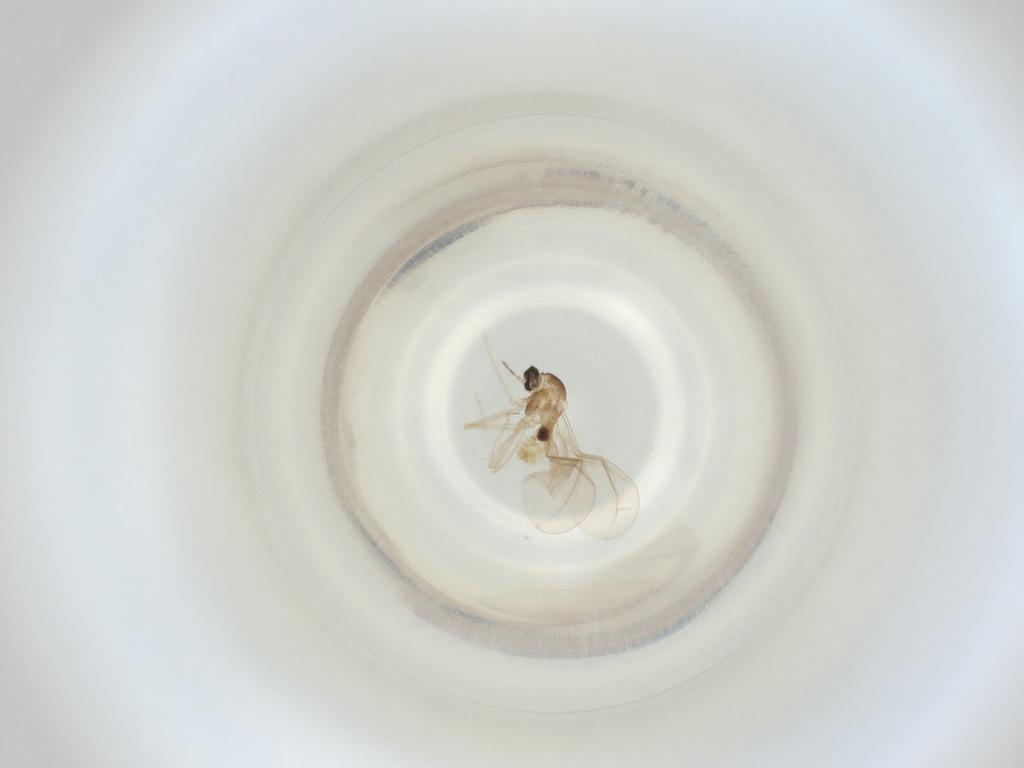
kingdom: Animalia
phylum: Arthropoda
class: Insecta
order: Diptera
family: Cecidomyiidae
